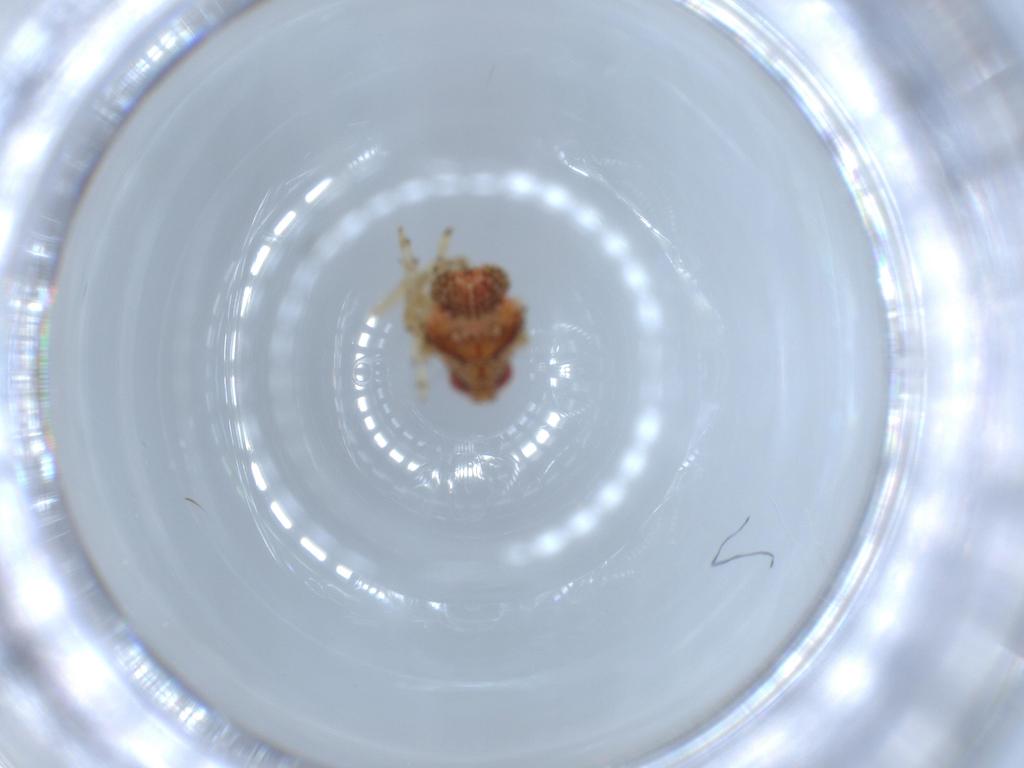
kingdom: Animalia
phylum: Arthropoda
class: Insecta
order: Hemiptera
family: Issidae
